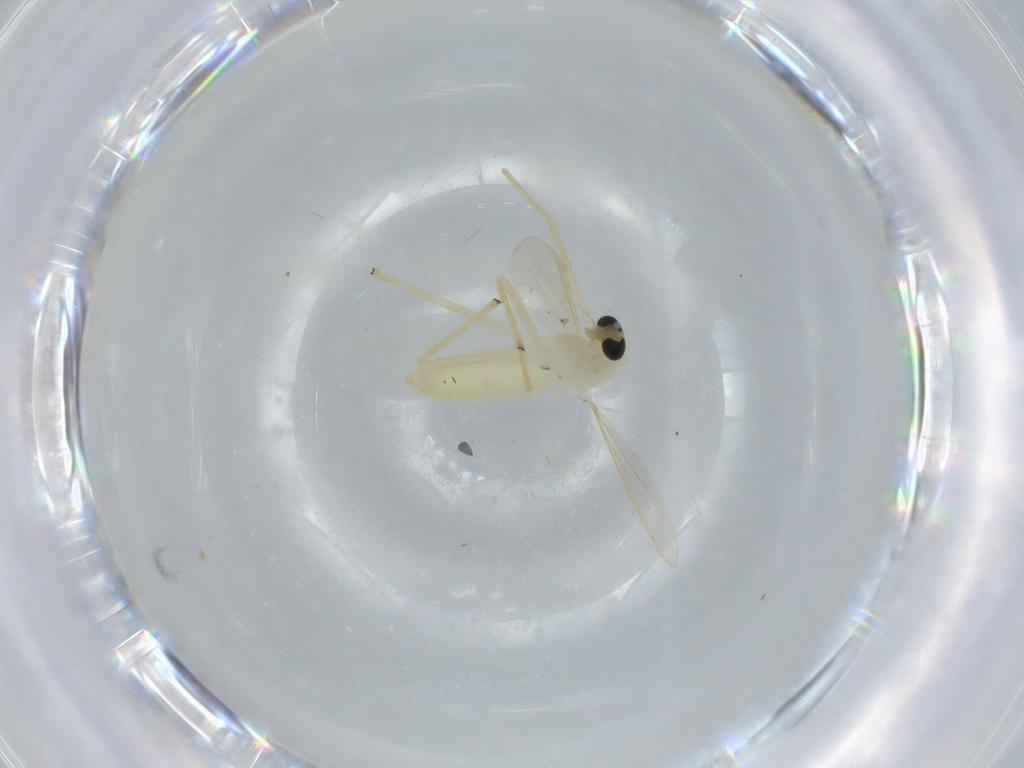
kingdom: Animalia
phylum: Arthropoda
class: Insecta
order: Diptera
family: Chironomidae
